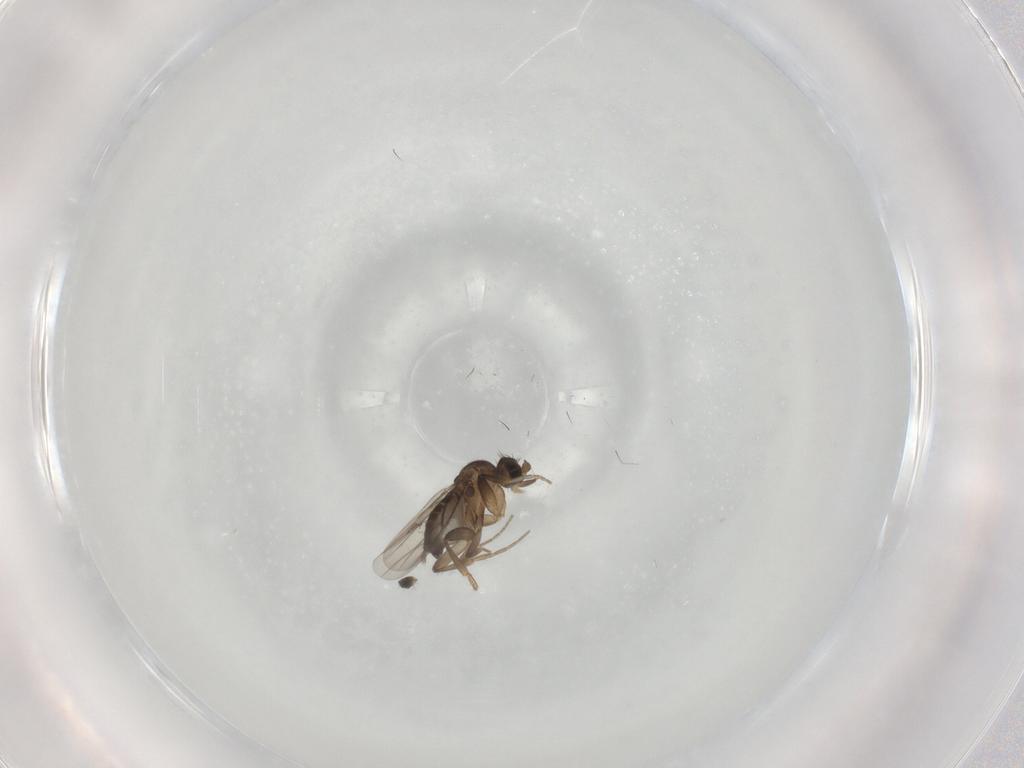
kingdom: Animalia
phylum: Arthropoda
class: Insecta
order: Diptera
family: Phoridae
